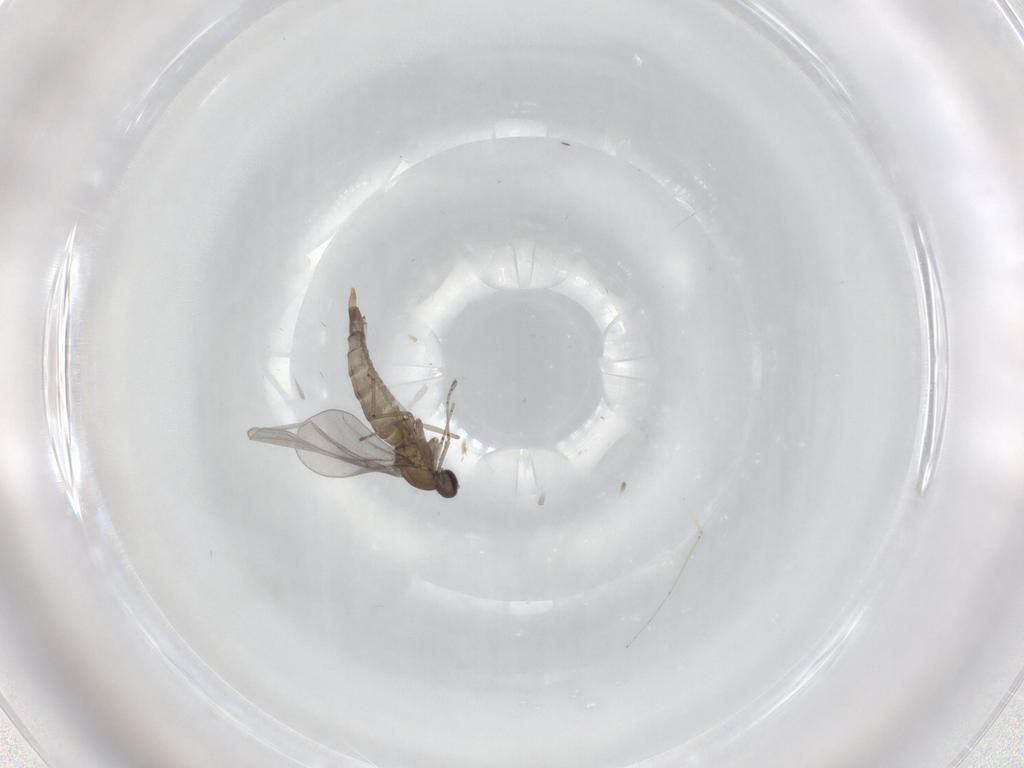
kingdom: Animalia
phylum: Arthropoda
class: Insecta
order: Diptera
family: Cecidomyiidae
